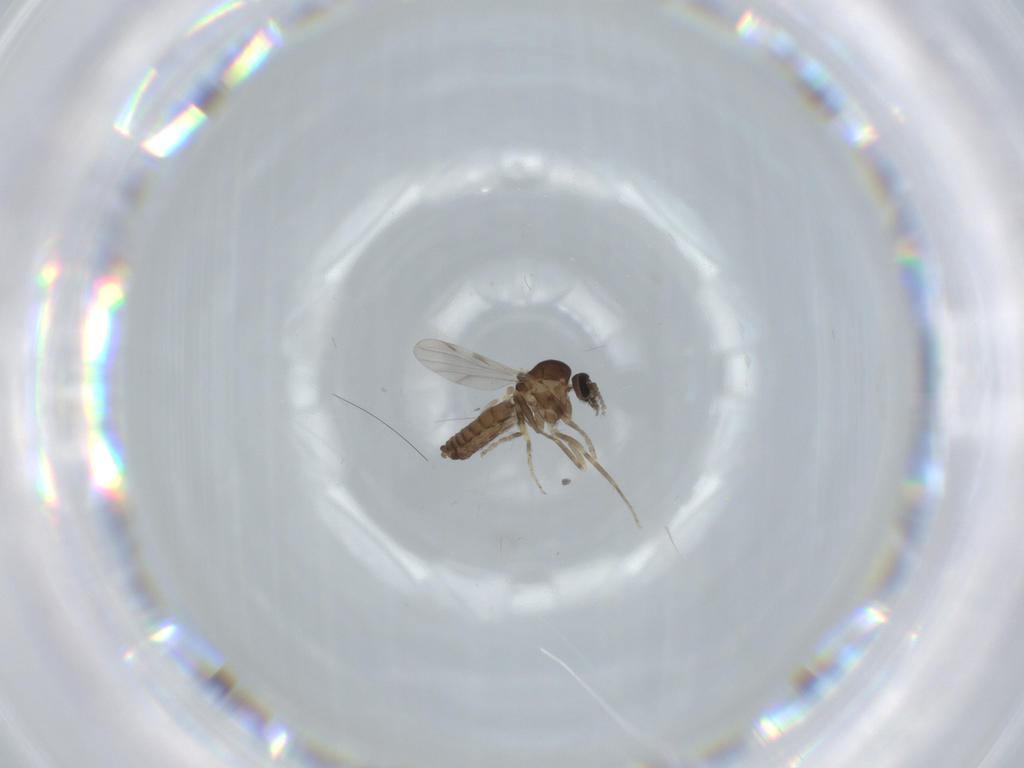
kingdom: Animalia
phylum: Arthropoda
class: Insecta
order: Diptera
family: Ceratopogonidae
